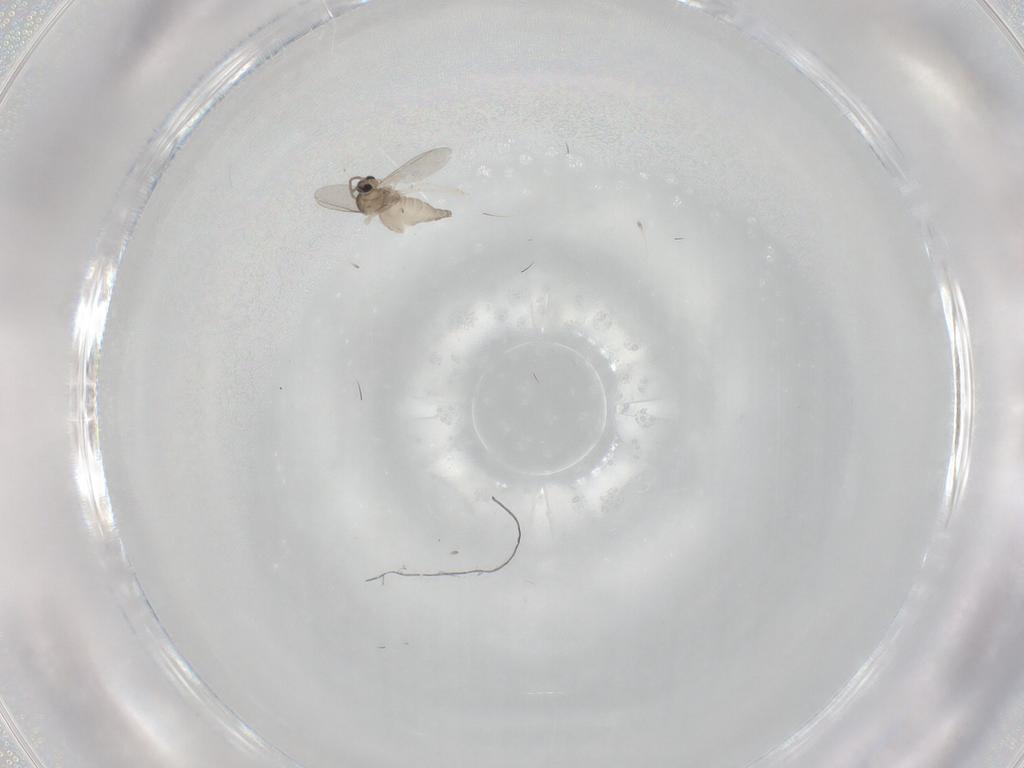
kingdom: Animalia
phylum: Arthropoda
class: Insecta
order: Diptera
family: Cecidomyiidae
